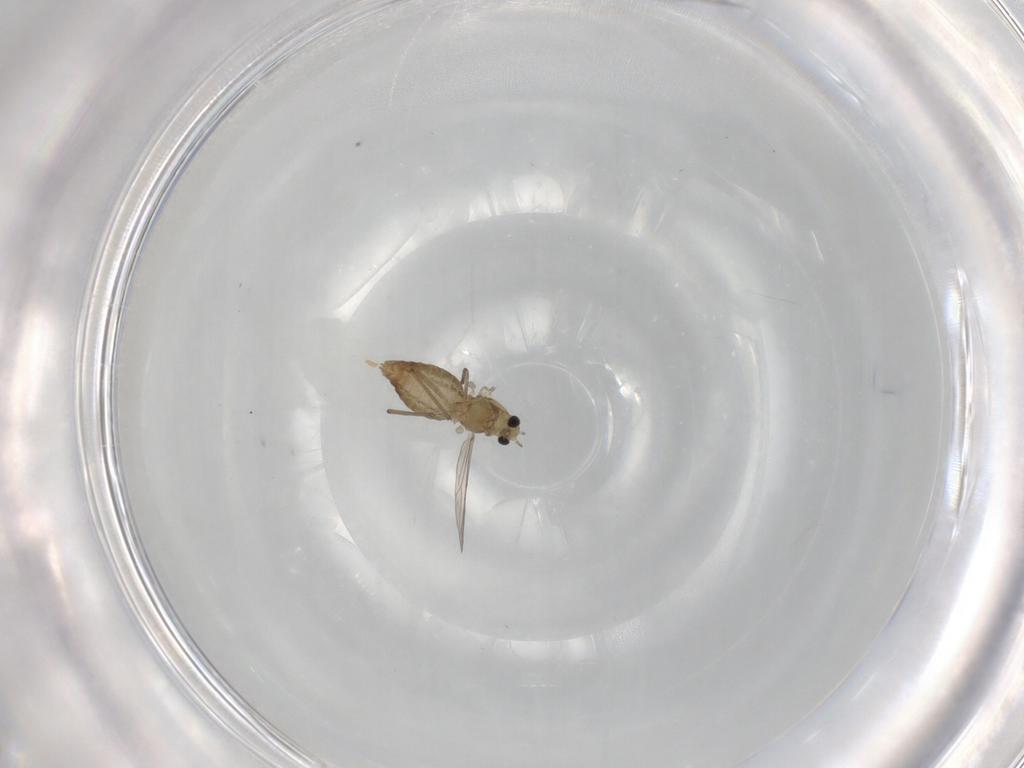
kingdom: Animalia
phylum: Arthropoda
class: Insecta
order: Diptera
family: Chironomidae
